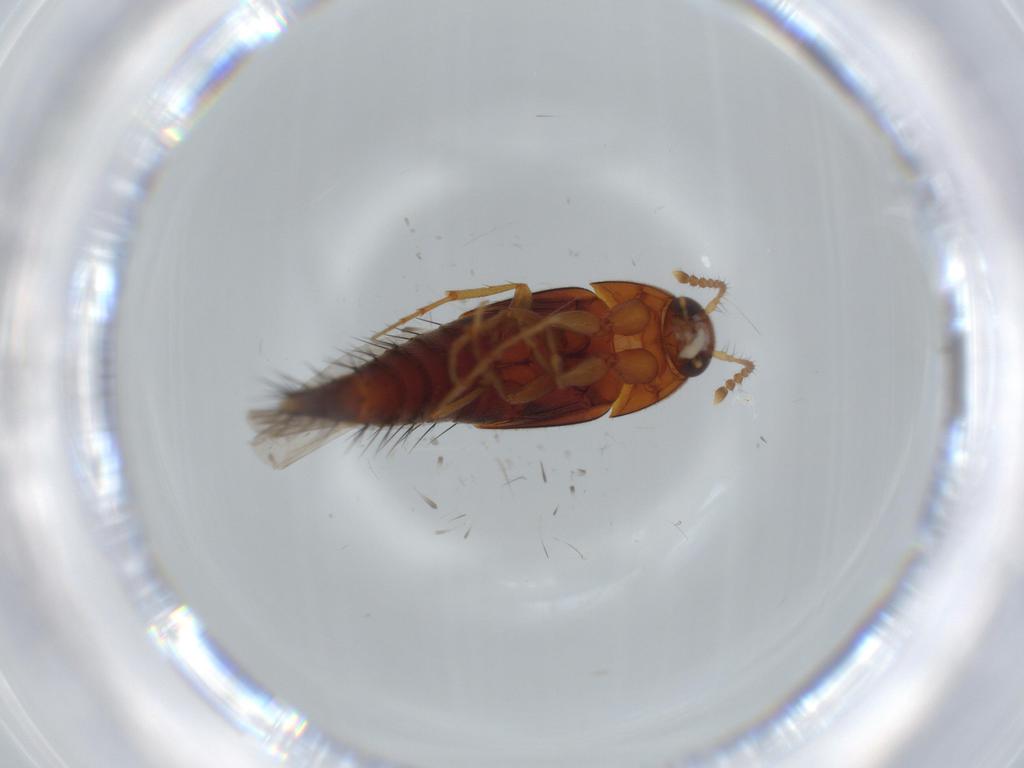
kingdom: Animalia
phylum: Arthropoda
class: Insecta
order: Coleoptera
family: Staphylinidae
